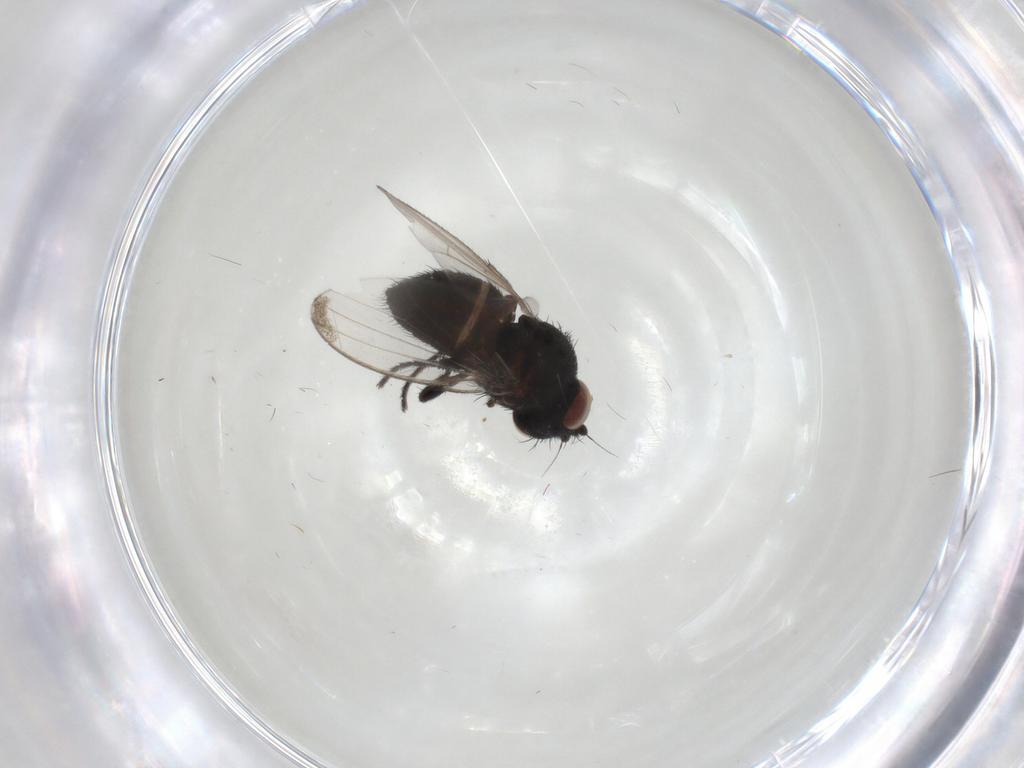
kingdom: Animalia
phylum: Arthropoda
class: Insecta
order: Diptera
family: Milichiidae
